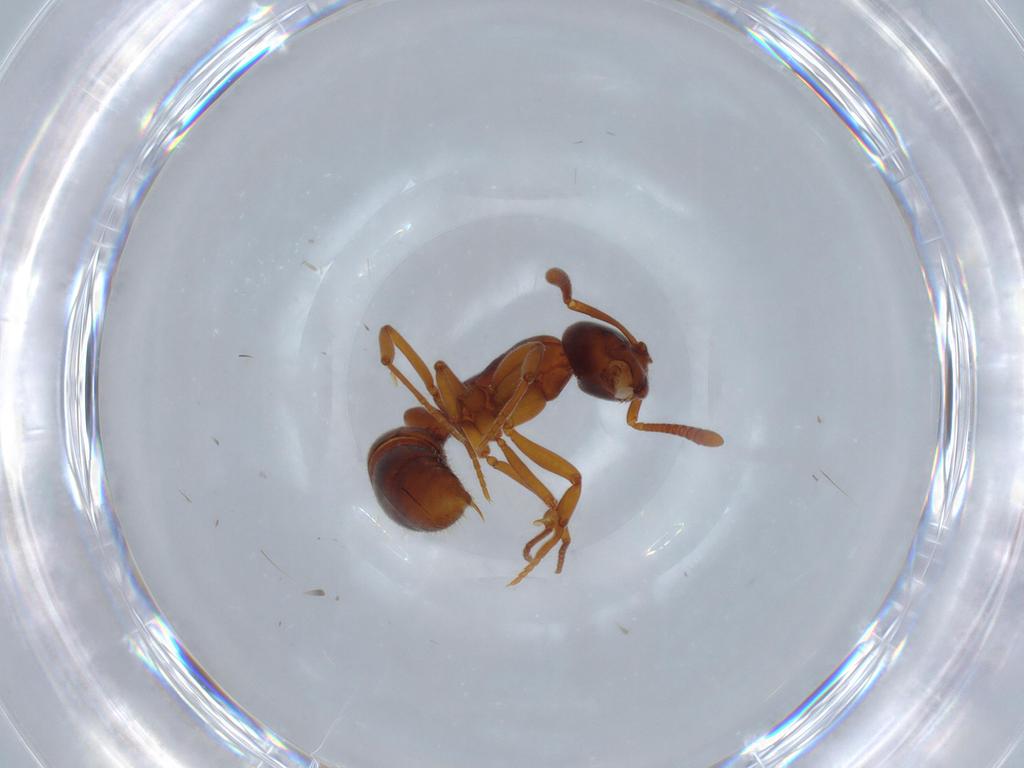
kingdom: Animalia
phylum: Arthropoda
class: Insecta
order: Hymenoptera
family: Formicidae
